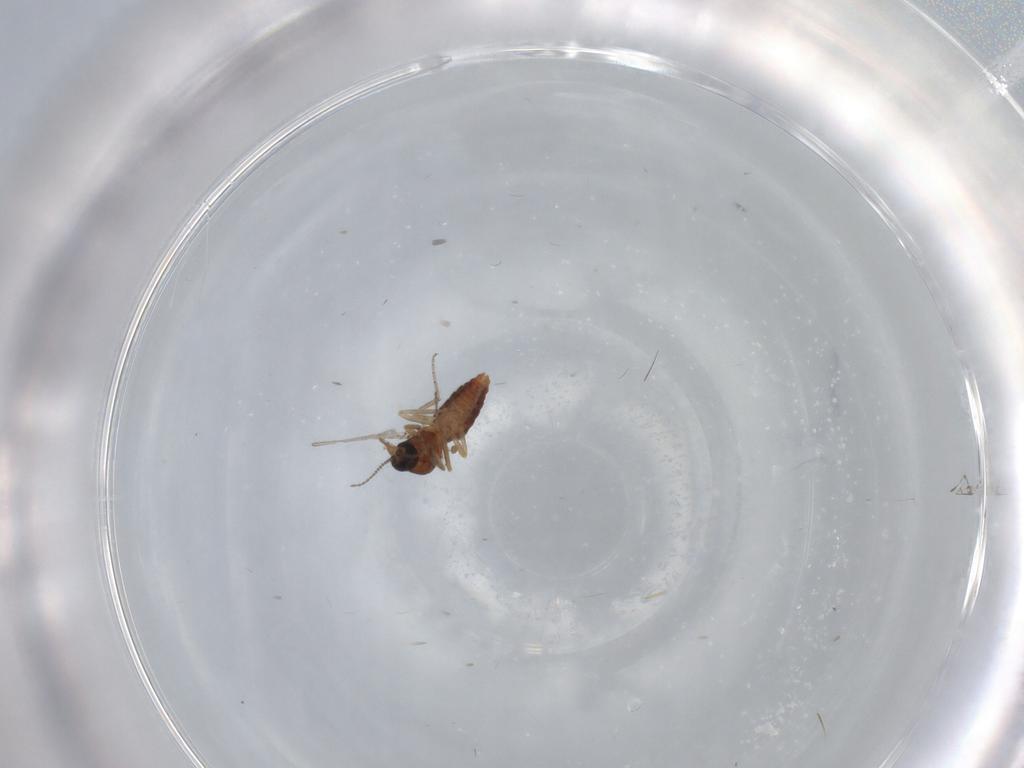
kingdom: Animalia
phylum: Arthropoda
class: Insecta
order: Diptera
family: Ceratopogonidae
